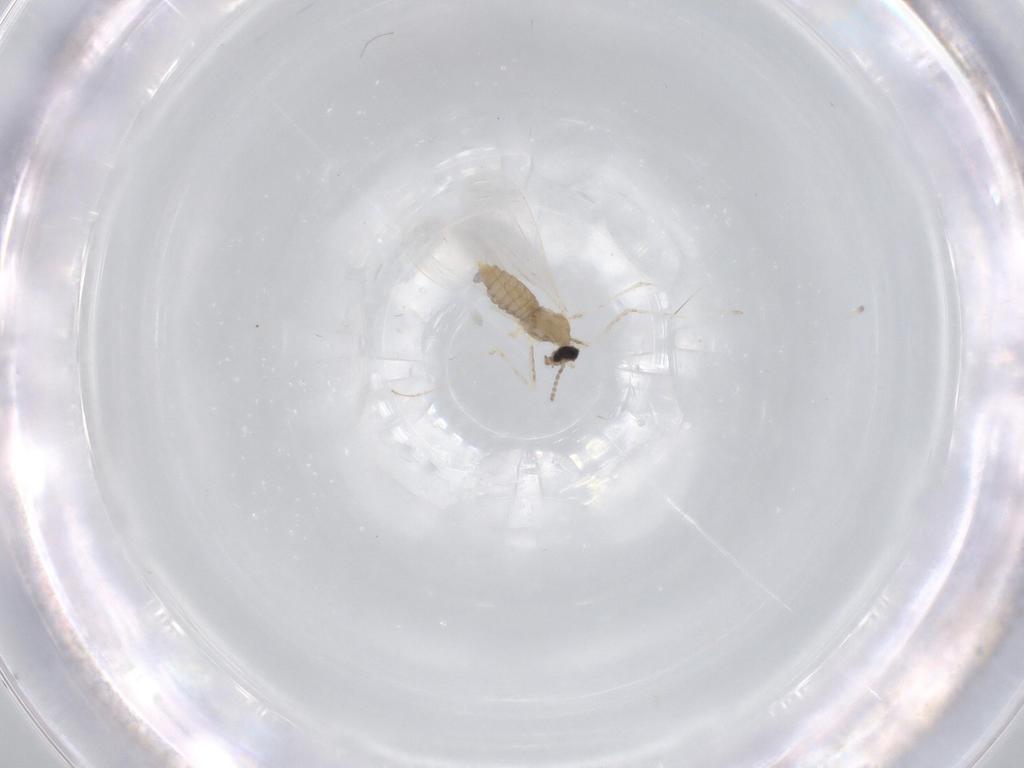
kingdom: Animalia
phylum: Arthropoda
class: Insecta
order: Diptera
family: Cecidomyiidae
